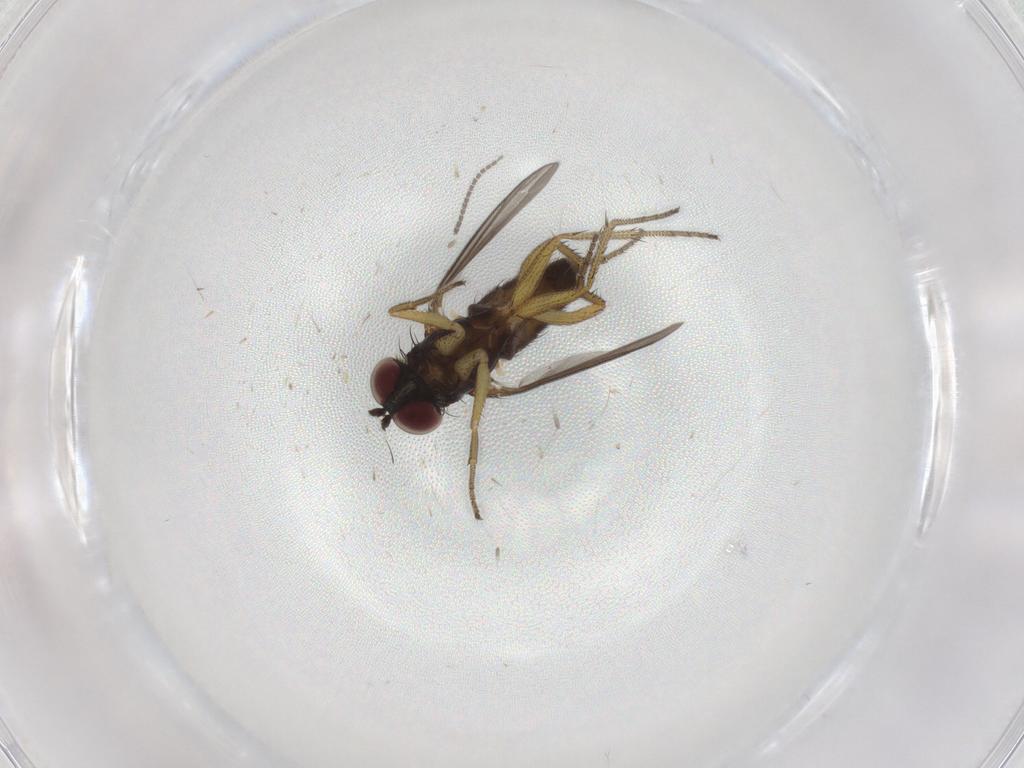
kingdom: Animalia
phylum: Arthropoda
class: Insecta
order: Diptera
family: Sciaridae
